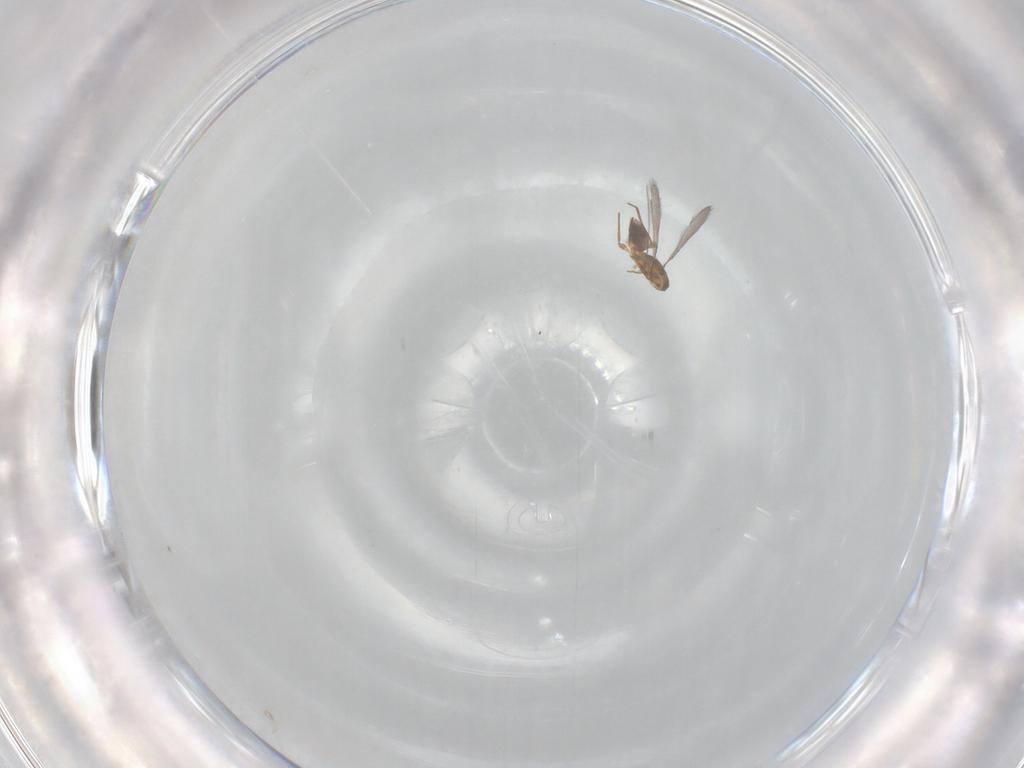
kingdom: Animalia
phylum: Arthropoda
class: Insecta
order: Hymenoptera
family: Mymaridae
